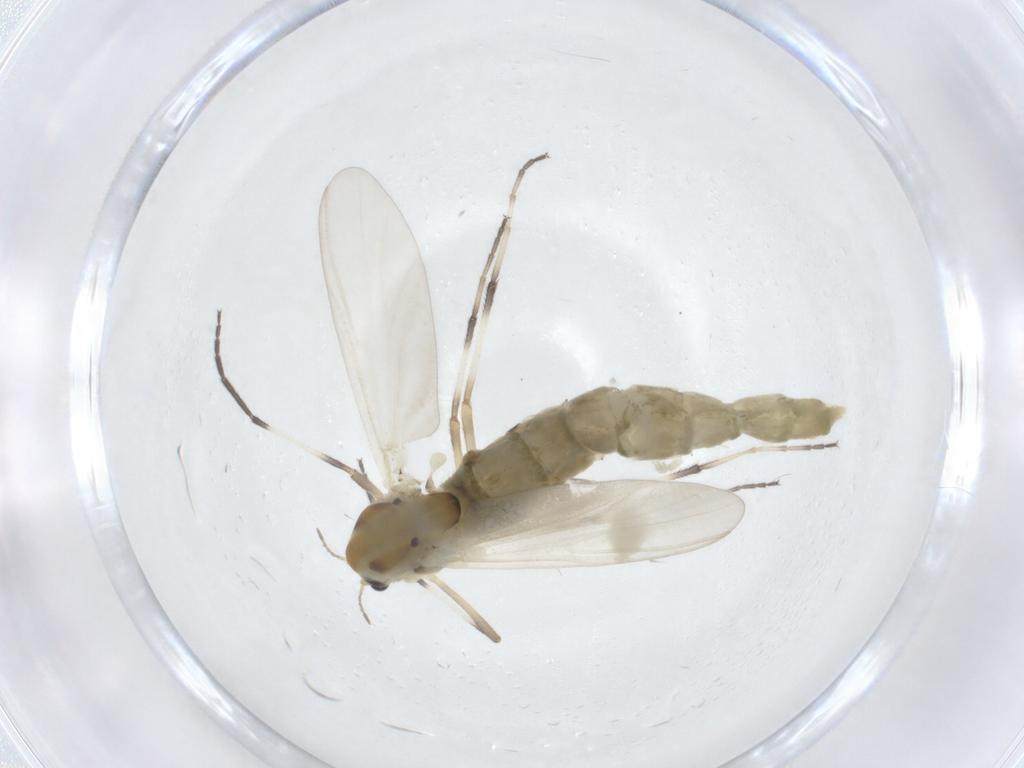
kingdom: Animalia
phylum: Arthropoda
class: Insecta
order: Diptera
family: Chironomidae
